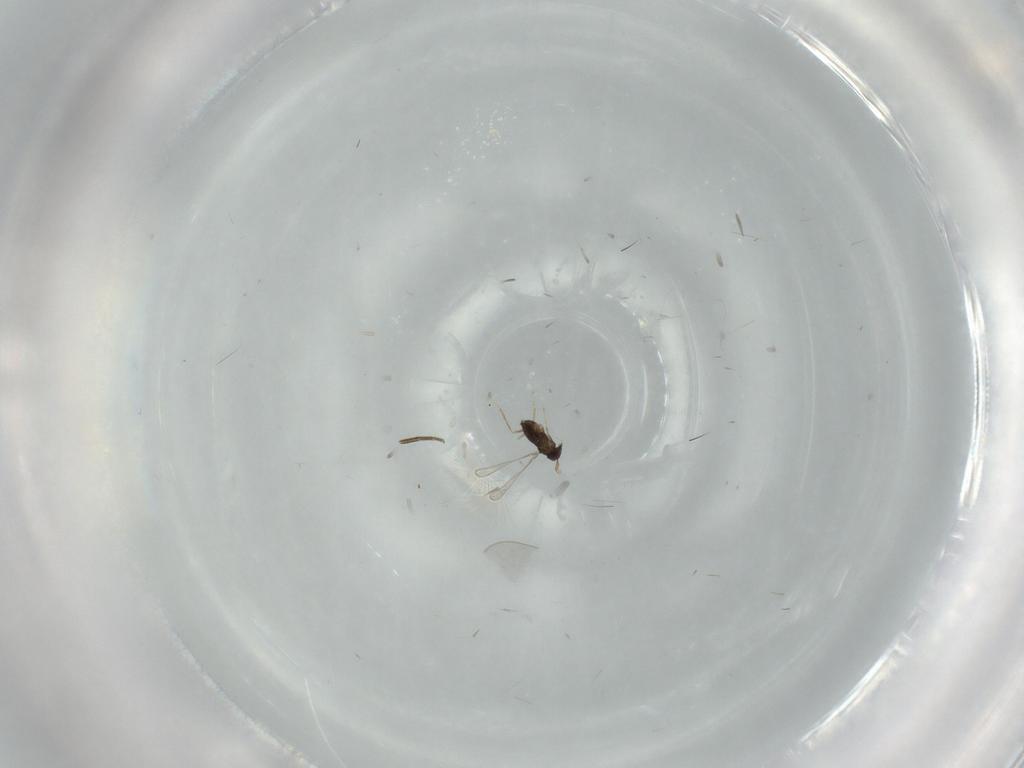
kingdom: Animalia
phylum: Arthropoda
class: Insecta
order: Hymenoptera
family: Mymaridae
